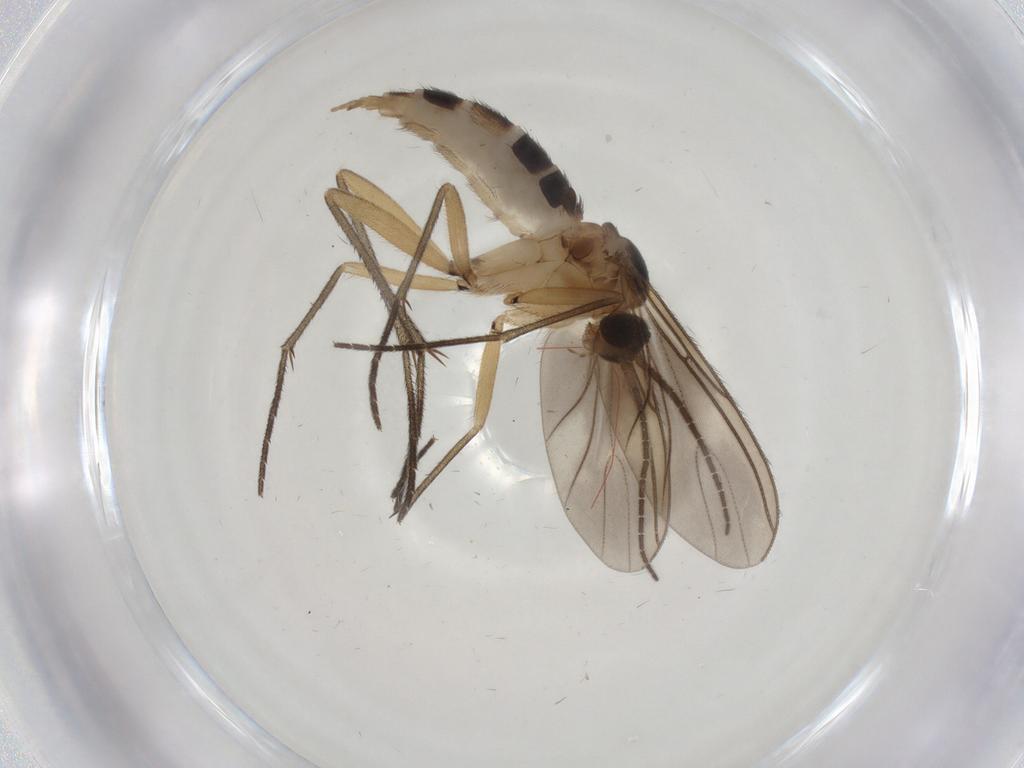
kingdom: Animalia
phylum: Arthropoda
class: Insecta
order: Diptera
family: Sciaridae
